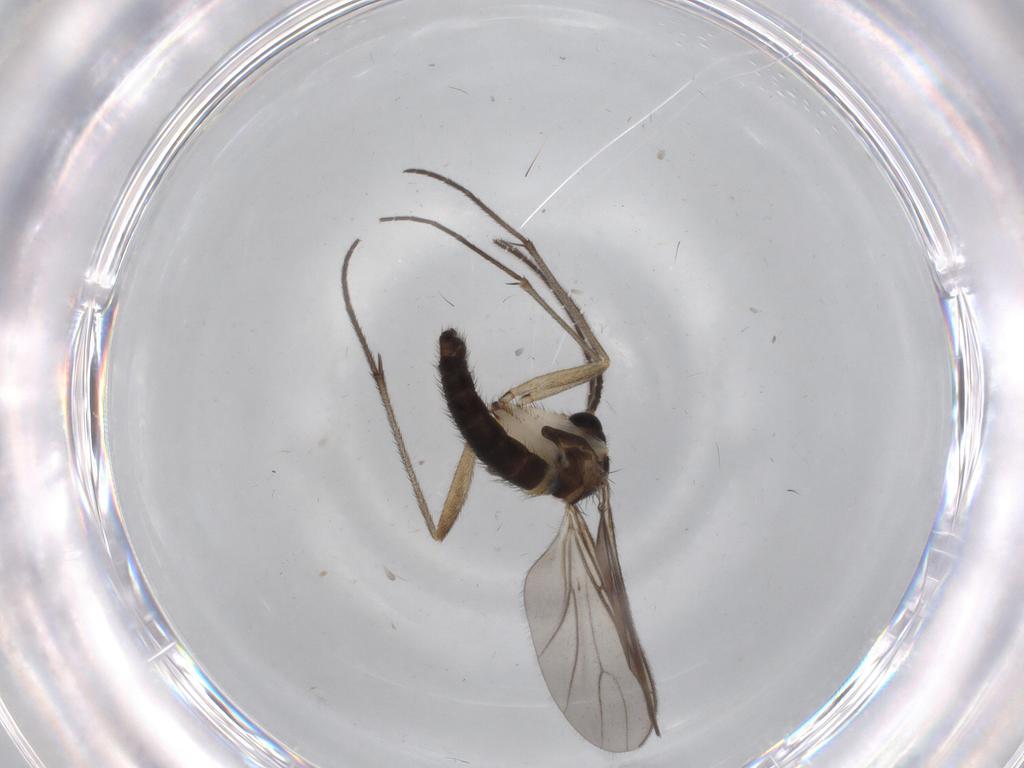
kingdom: Animalia
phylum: Arthropoda
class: Insecta
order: Diptera
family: Sciaridae
